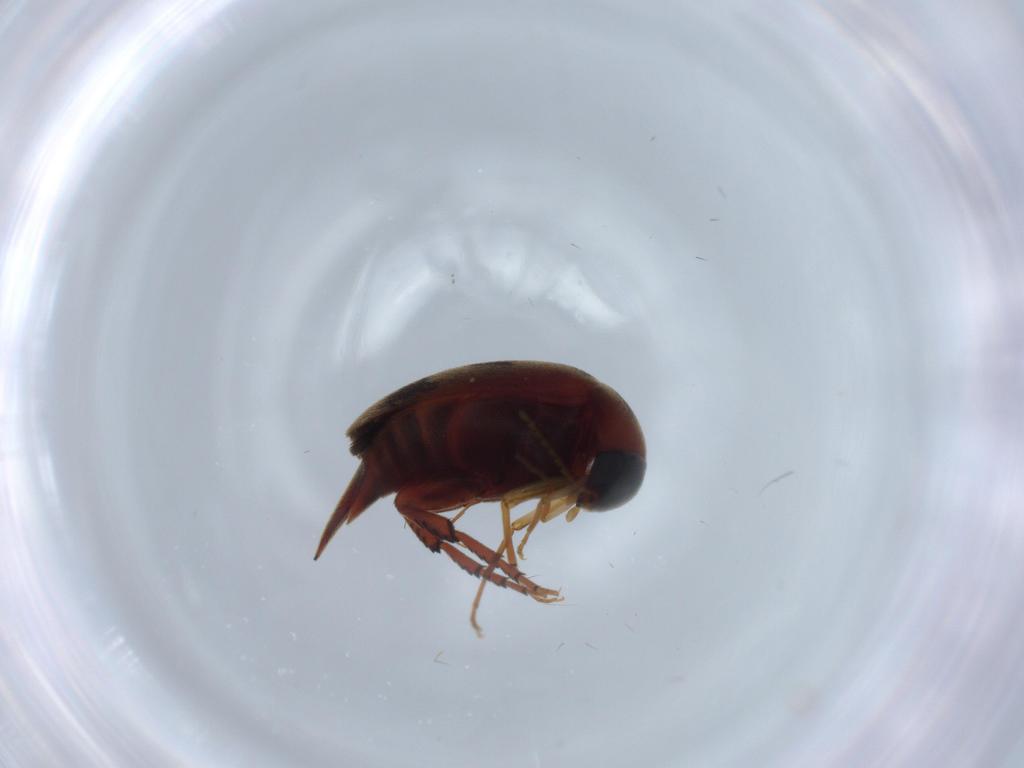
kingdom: Animalia
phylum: Arthropoda
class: Insecta
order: Coleoptera
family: Mordellidae
